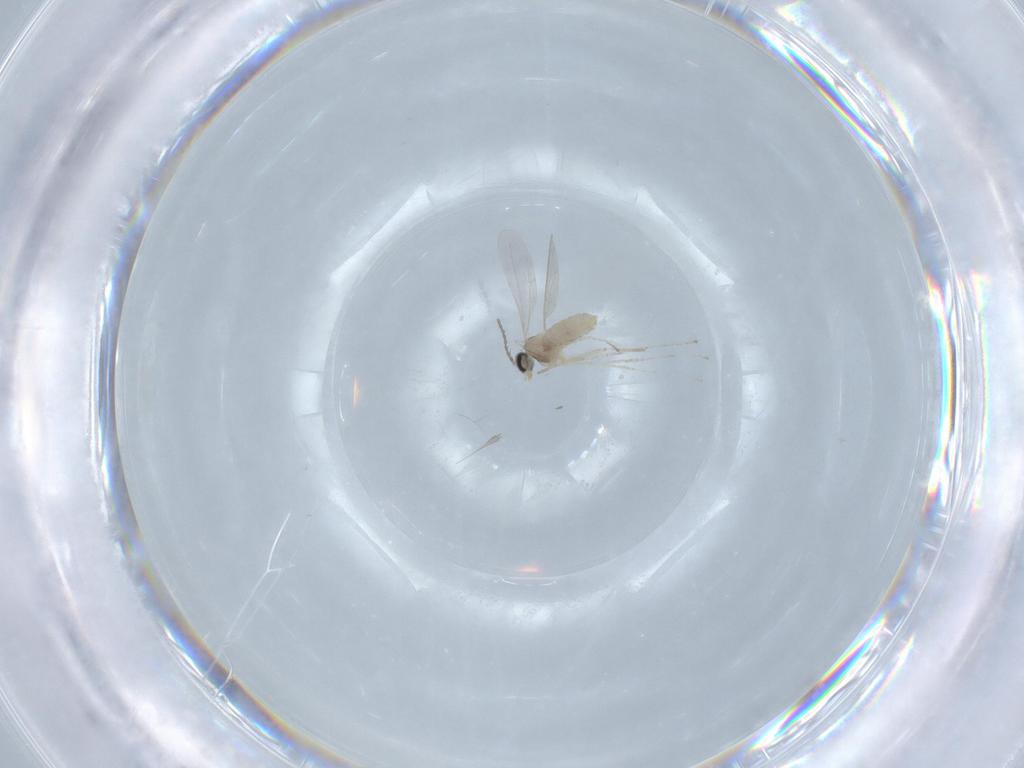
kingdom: Animalia
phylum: Arthropoda
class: Insecta
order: Diptera
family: Cecidomyiidae
